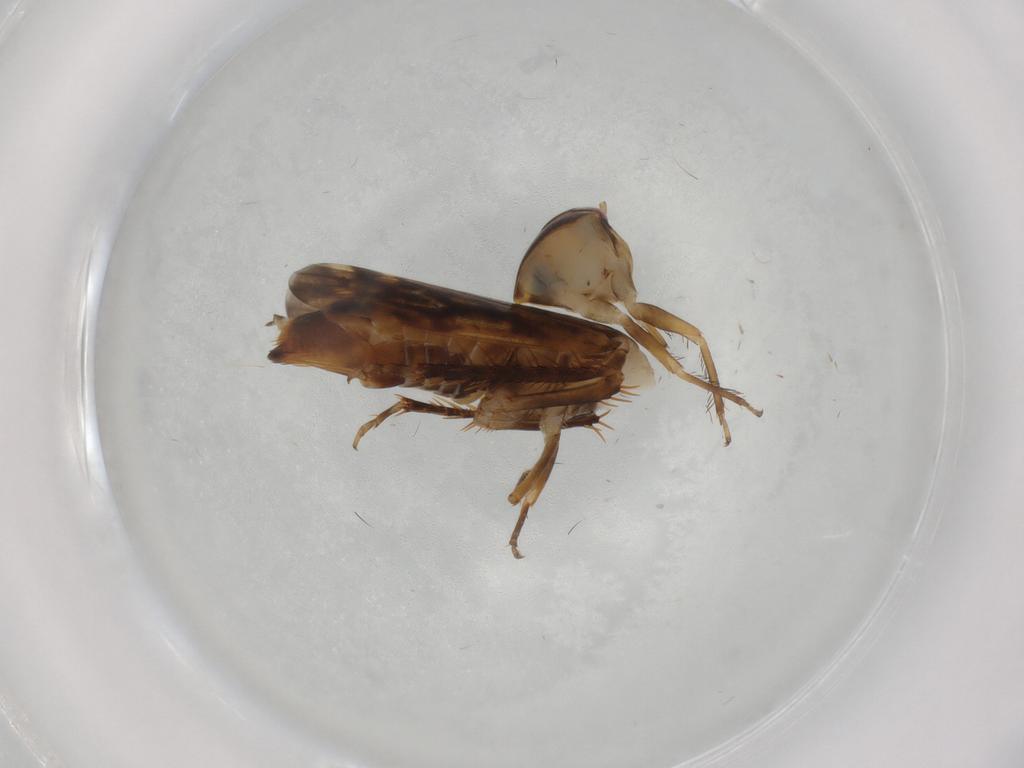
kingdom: Animalia
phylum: Arthropoda
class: Insecta
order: Hemiptera
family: Cicadellidae
